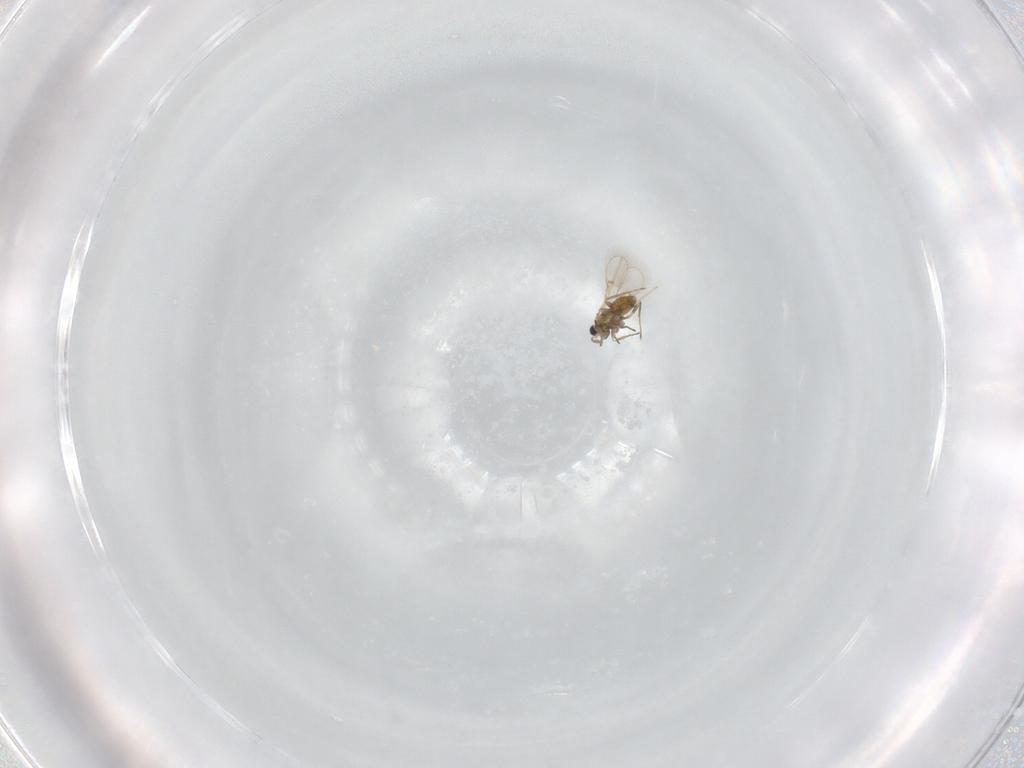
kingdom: Animalia
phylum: Arthropoda
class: Insecta
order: Hymenoptera
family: Trichogrammatidae
